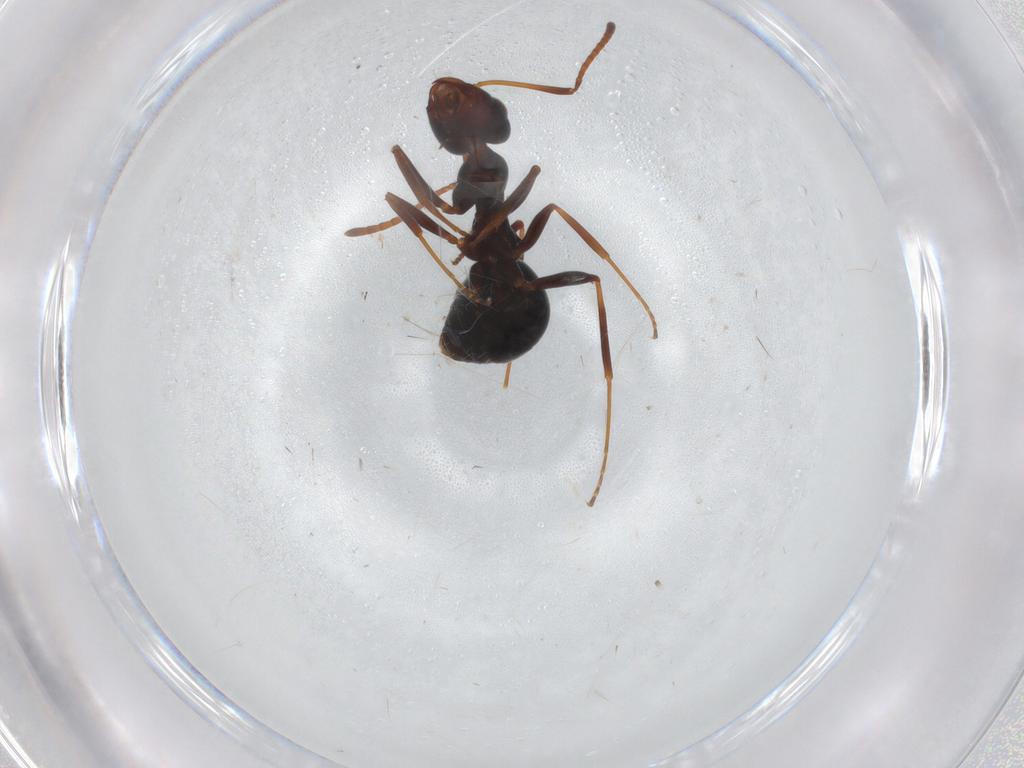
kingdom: Animalia
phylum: Arthropoda
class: Insecta
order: Hymenoptera
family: Formicidae
